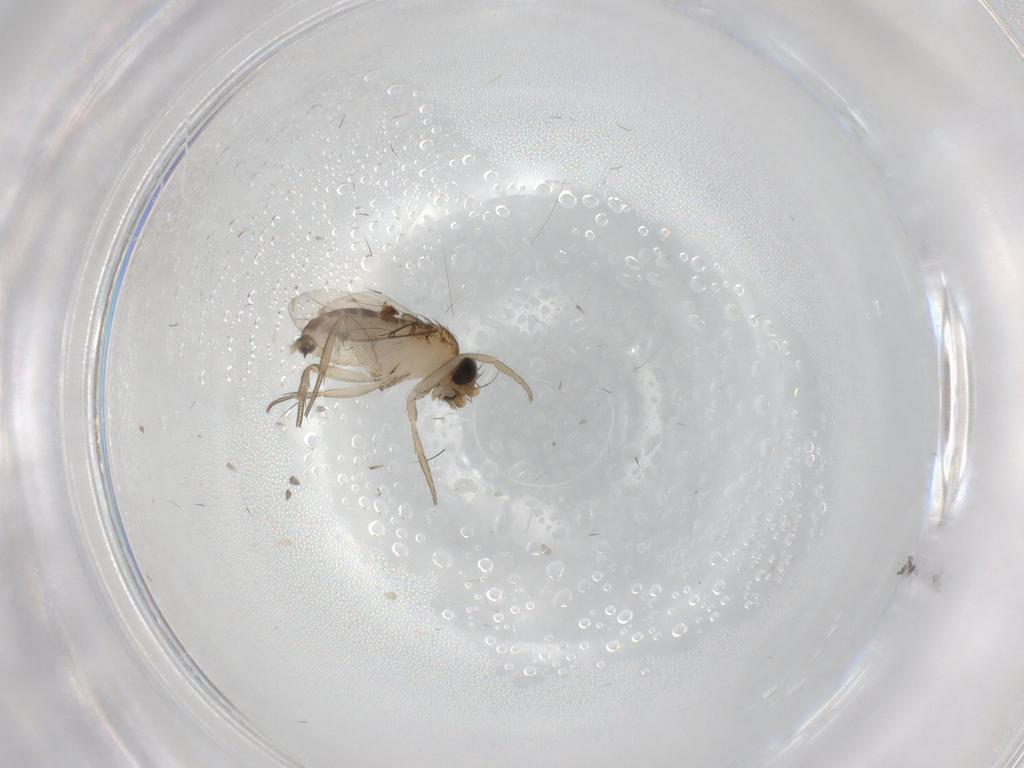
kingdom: Animalia
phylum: Arthropoda
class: Insecta
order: Diptera
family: Phoridae
